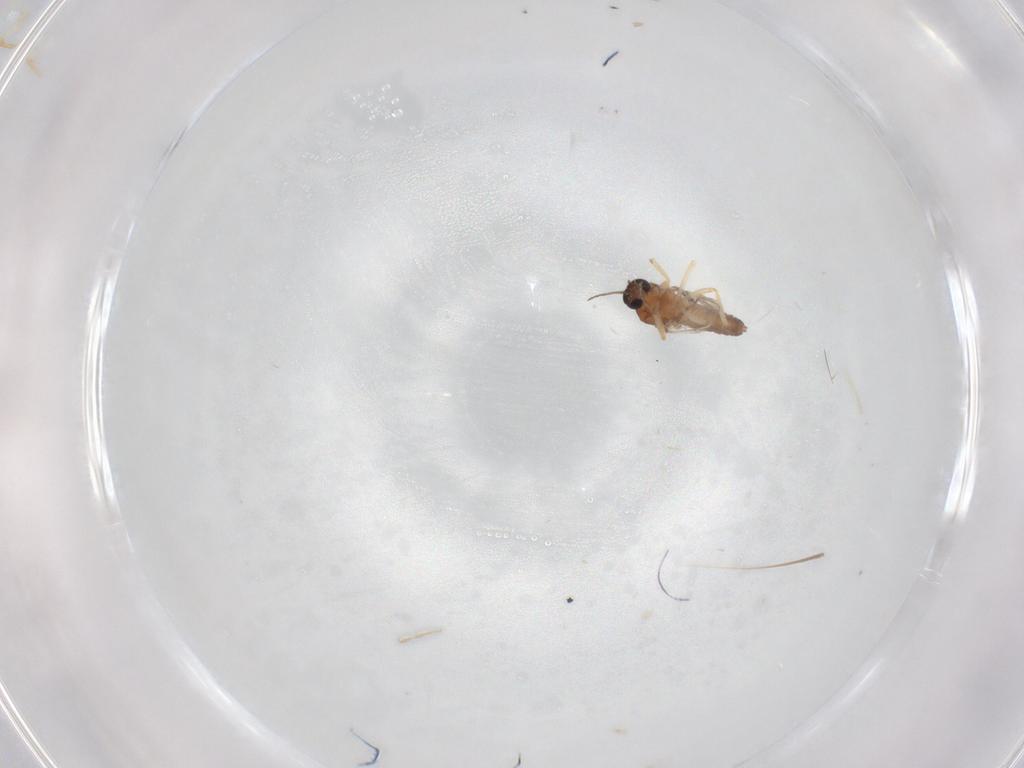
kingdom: Animalia
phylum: Arthropoda
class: Insecta
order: Diptera
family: Ceratopogonidae
